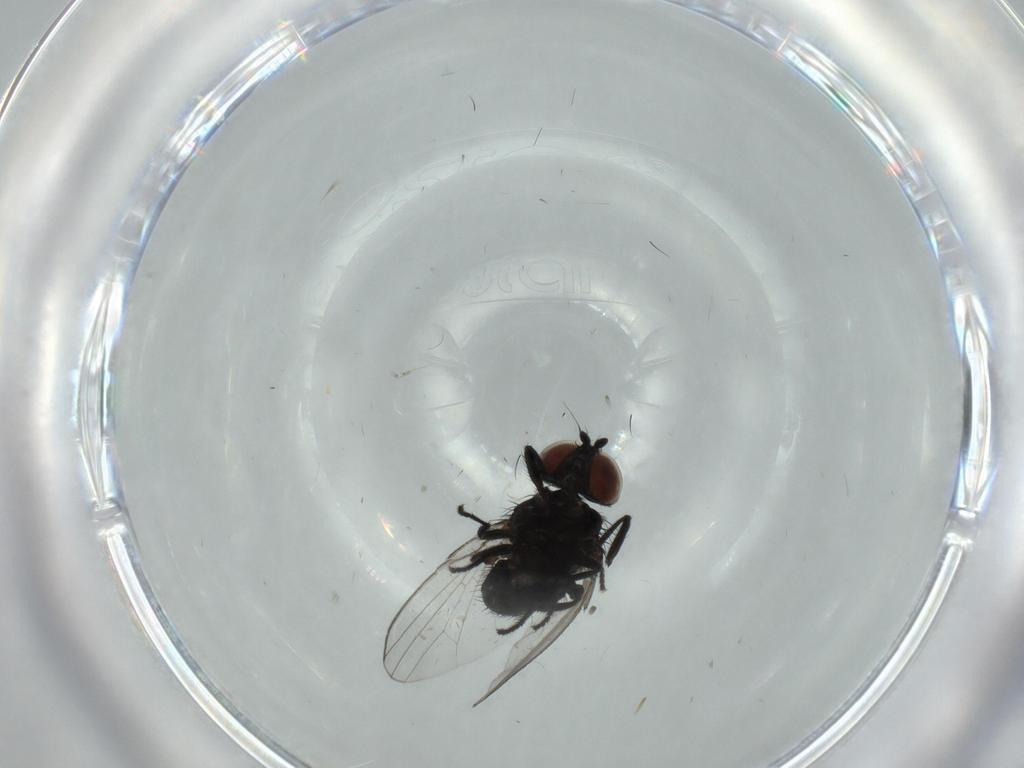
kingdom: Animalia
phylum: Arthropoda
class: Insecta
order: Diptera
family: Milichiidae
